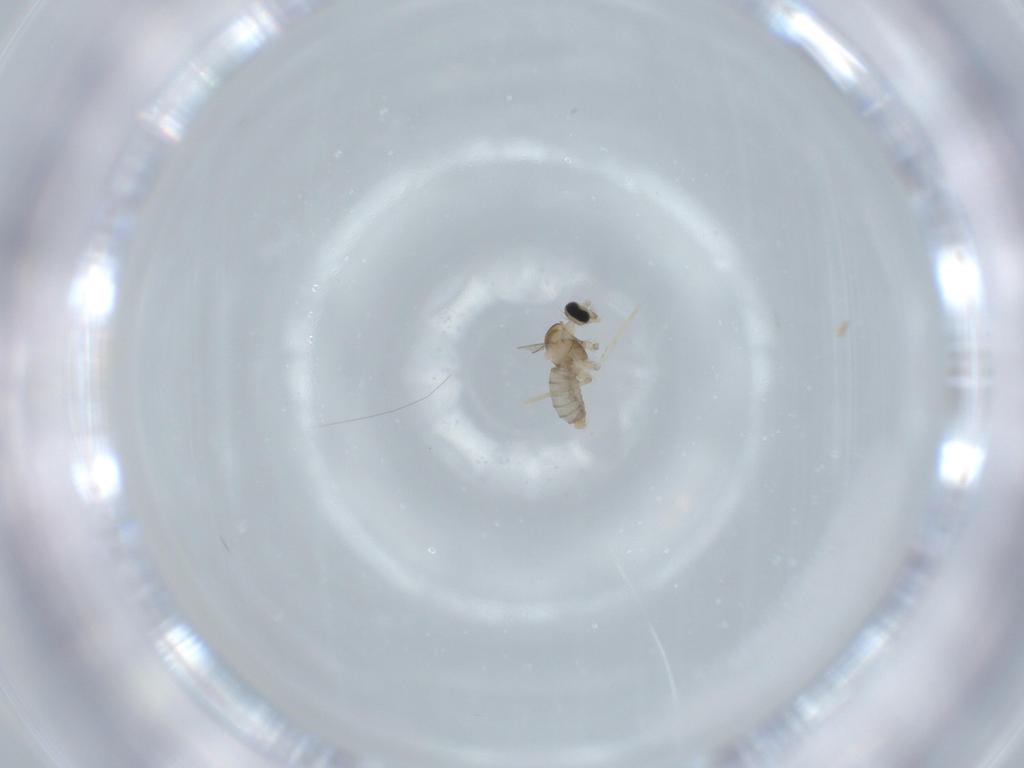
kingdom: Animalia
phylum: Arthropoda
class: Insecta
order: Diptera
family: Cecidomyiidae
